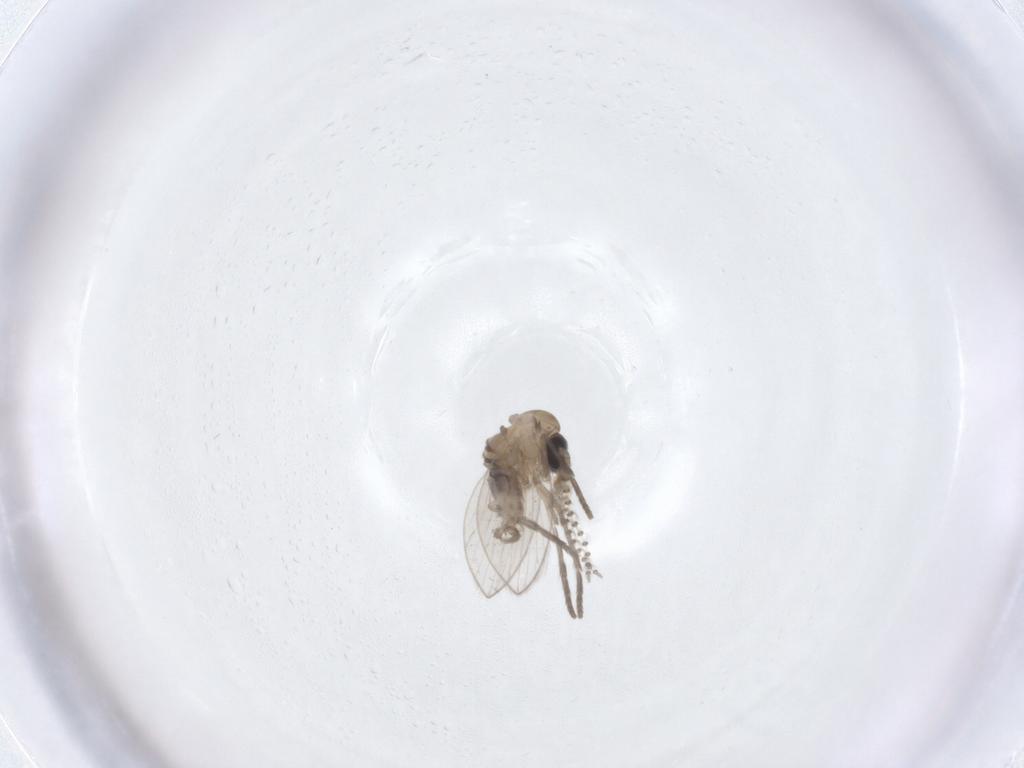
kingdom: Animalia
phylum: Arthropoda
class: Insecta
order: Diptera
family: Psychodidae
